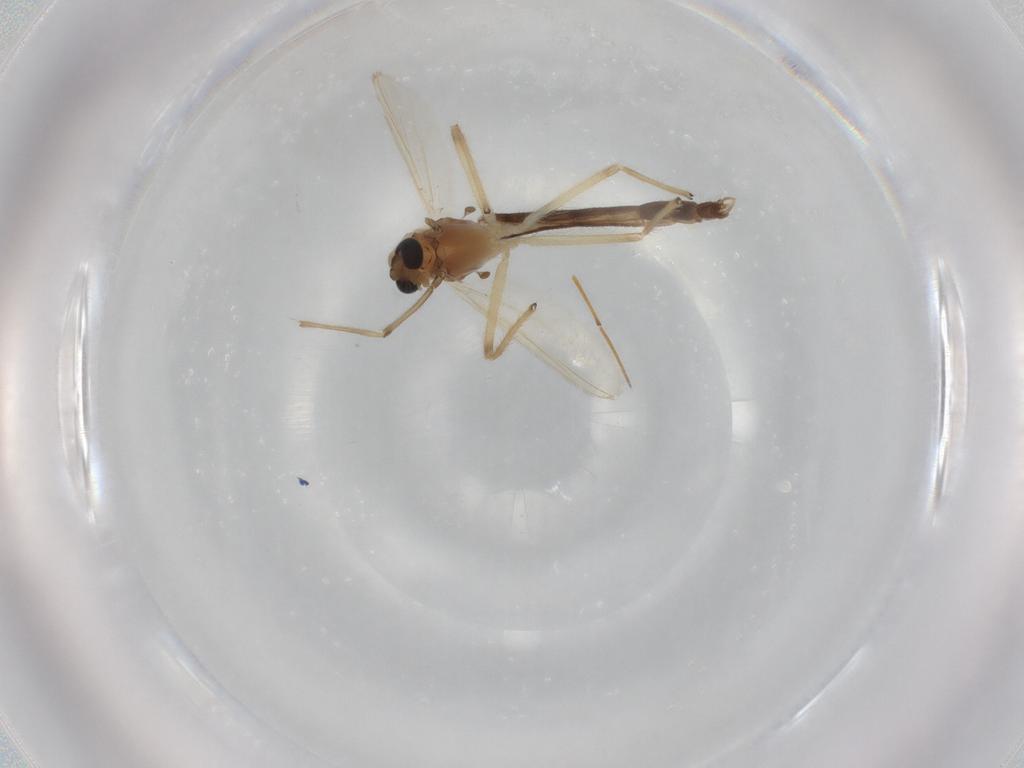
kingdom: Animalia
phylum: Arthropoda
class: Insecta
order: Diptera
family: Chironomidae
